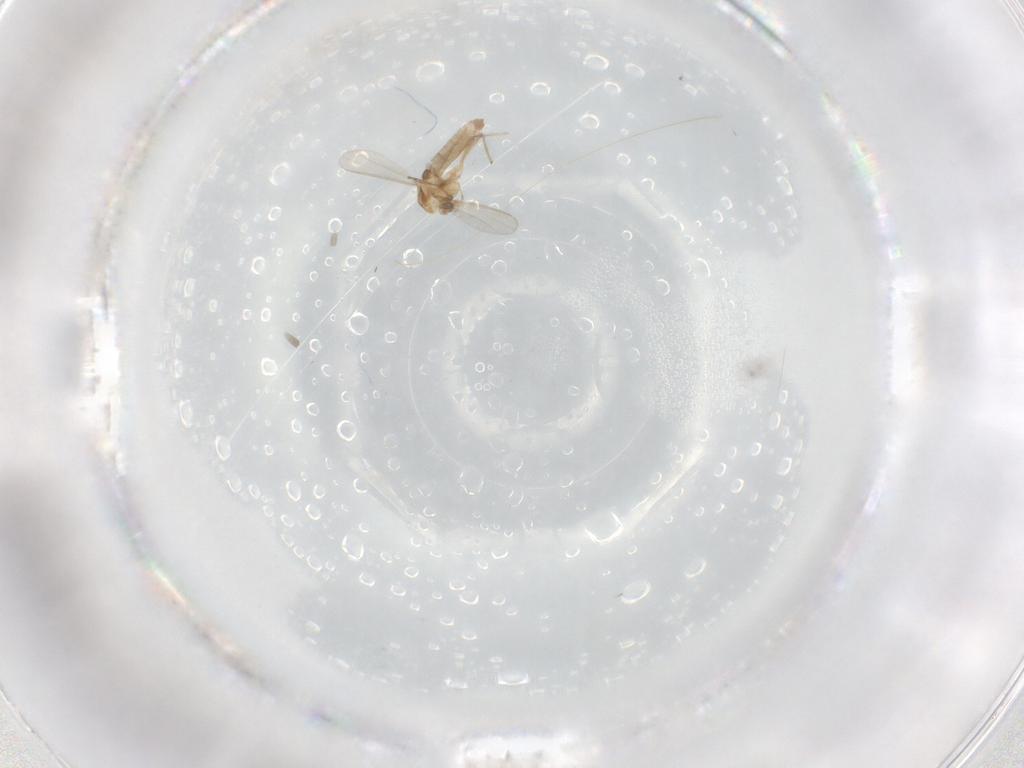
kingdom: Animalia
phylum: Arthropoda
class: Insecta
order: Diptera
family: Chironomidae
